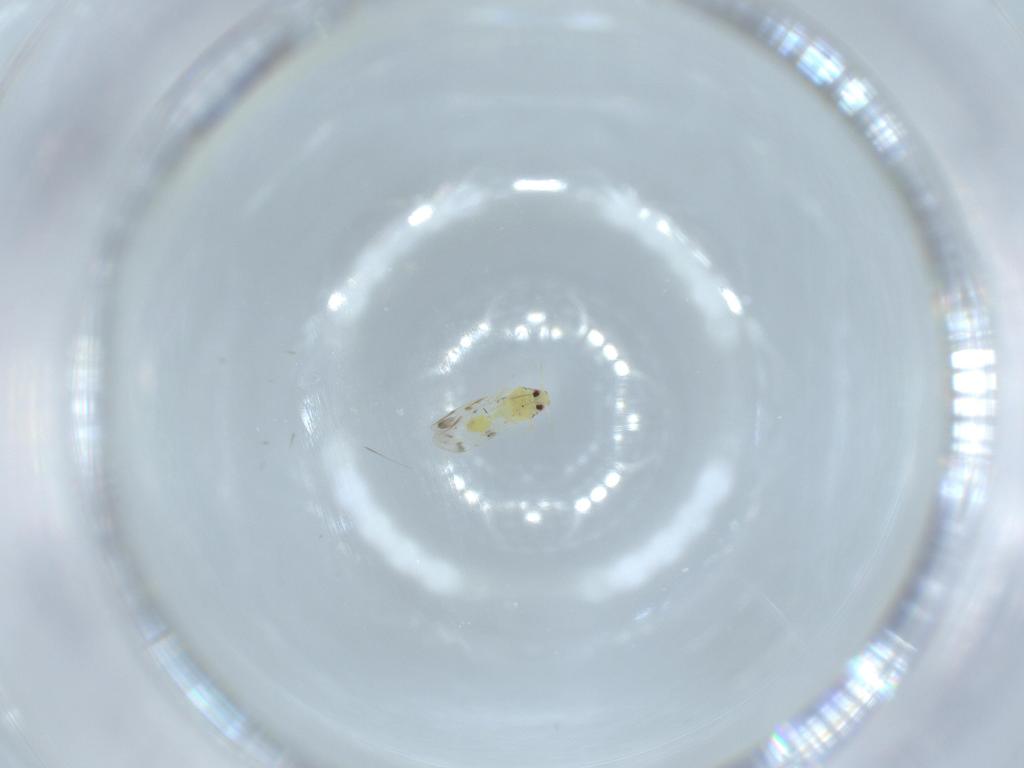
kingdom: Animalia
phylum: Arthropoda
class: Insecta
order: Hemiptera
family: Aleyrodidae
